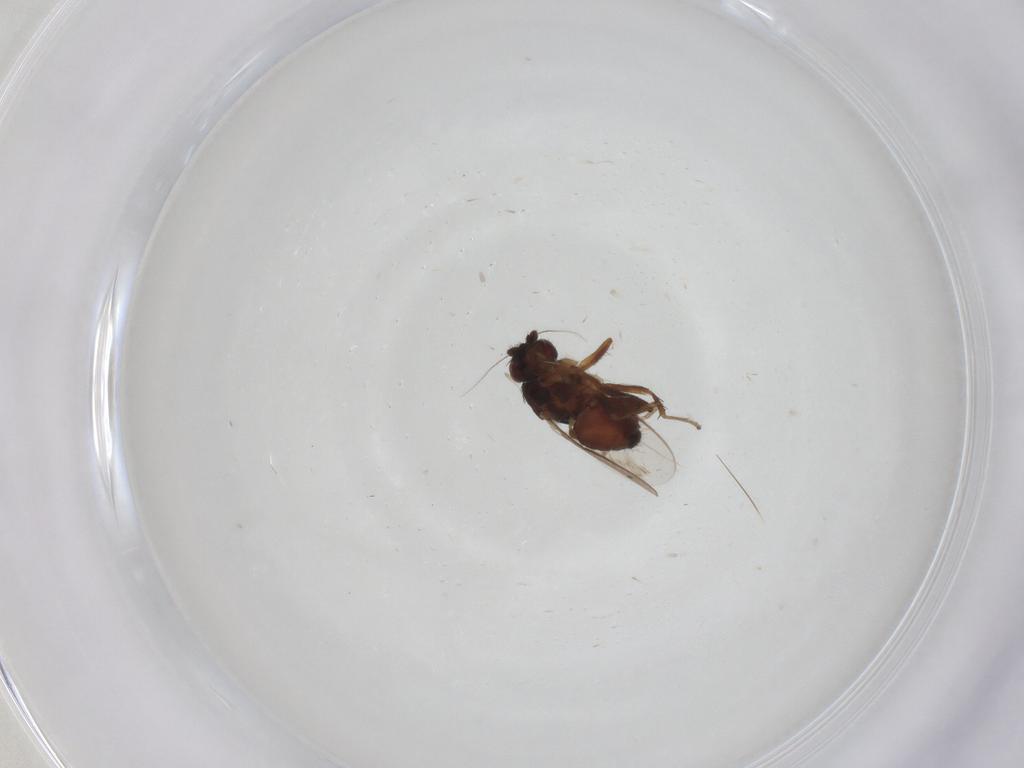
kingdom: Animalia
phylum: Arthropoda
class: Insecta
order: Diptera
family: Sphaeroceridae
